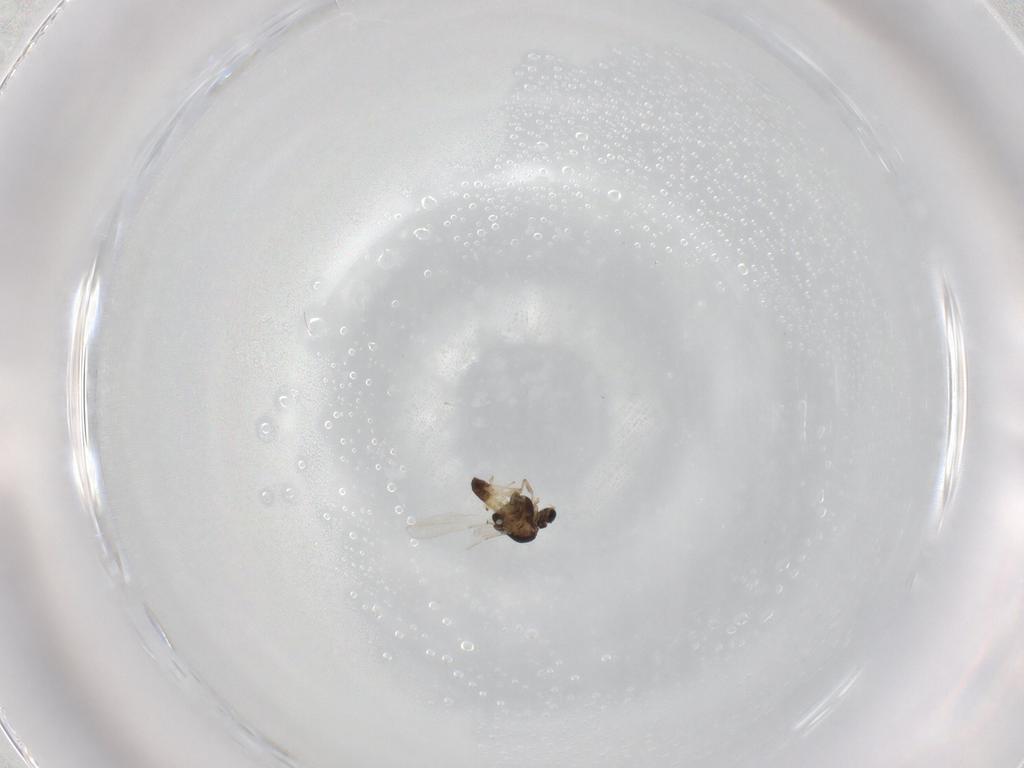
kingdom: Animalia
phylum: Arthropoda
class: Insecta
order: Diptera
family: Chironomidae
